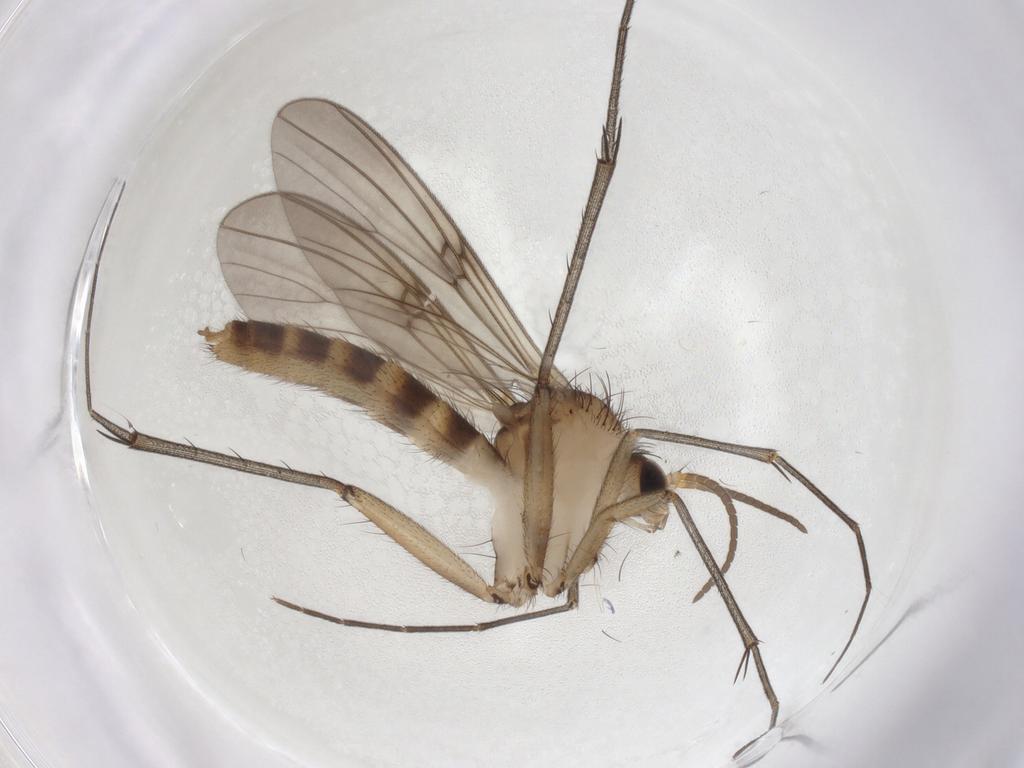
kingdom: Animalia
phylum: Arthropoda
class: Insecta
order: Diptera
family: Mycetophilidae
